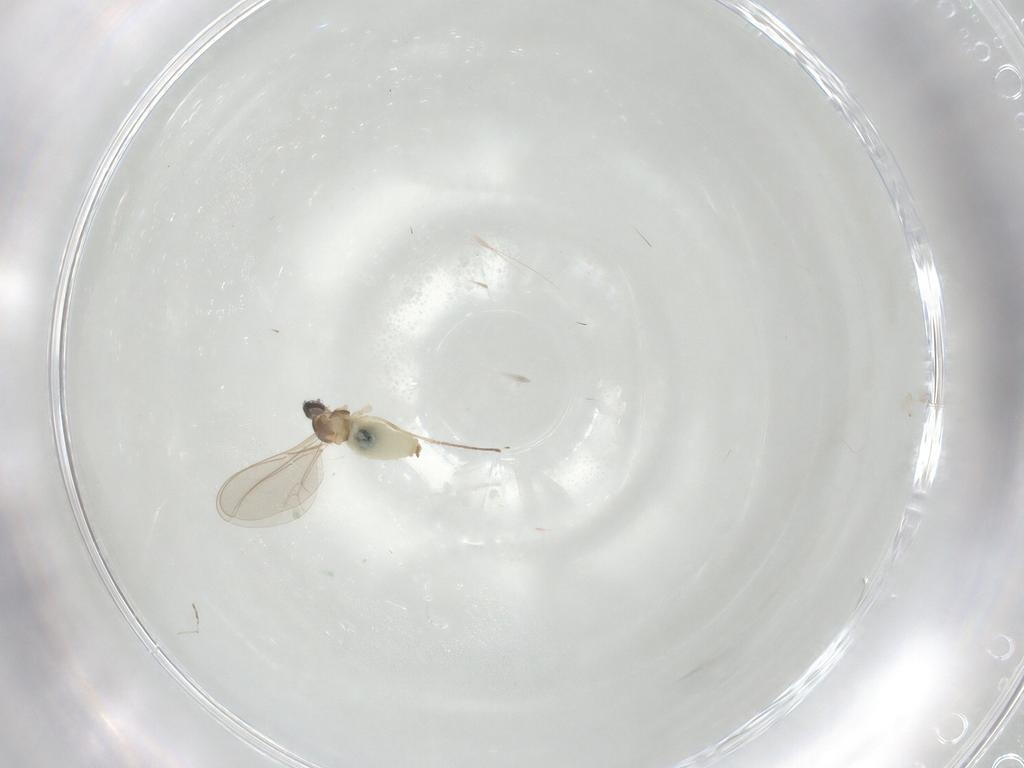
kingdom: Animalia
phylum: Arthropoda
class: Insecta
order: Diptera
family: Cecidomyiidae
